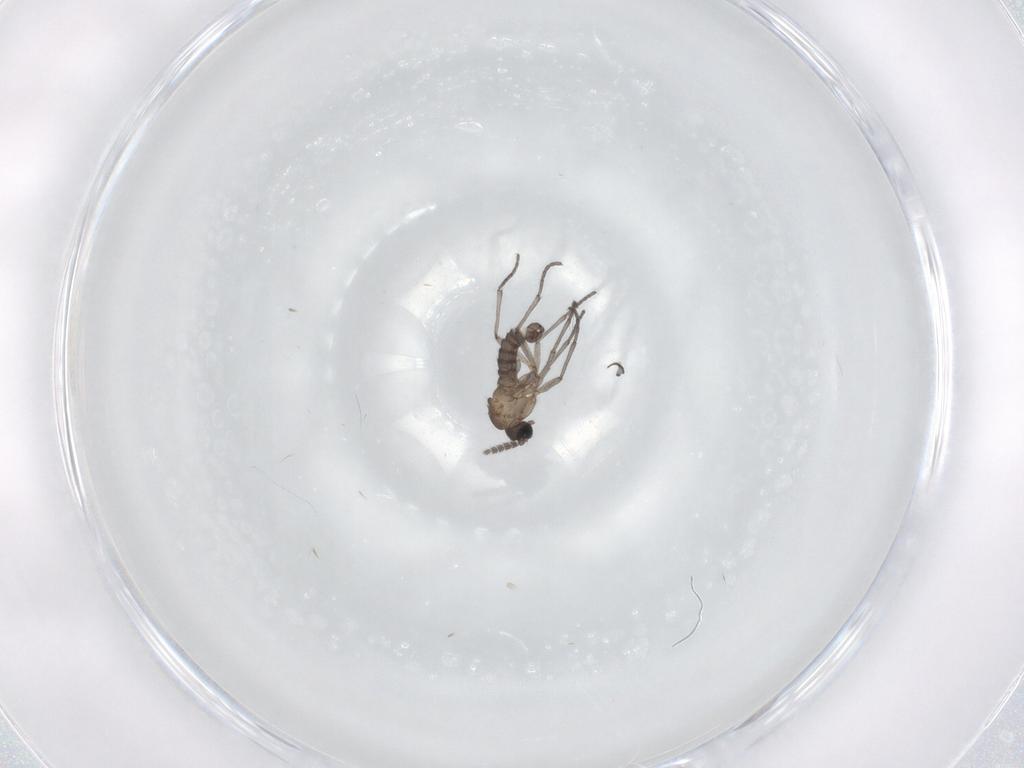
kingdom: Animalia
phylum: Arthropoda
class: Insecta
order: Diptera
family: Sciaridae
